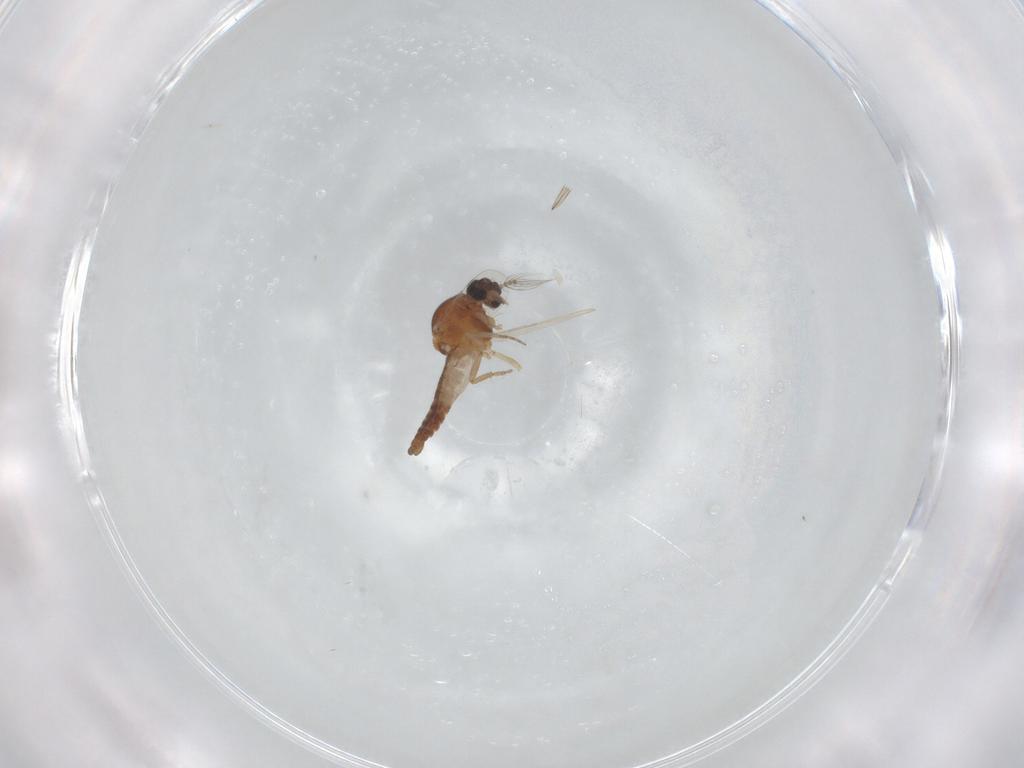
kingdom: Animalia
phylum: Arthropoda
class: Insecta
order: Diptera
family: Ceratopogonidae
